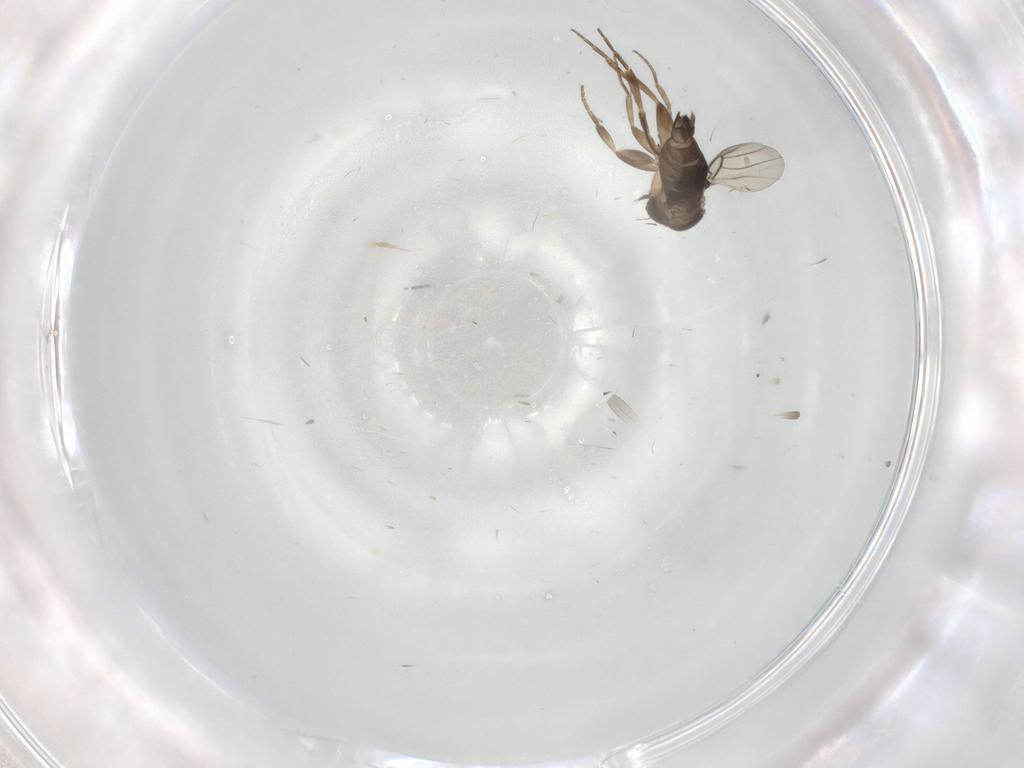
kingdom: Animalia
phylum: Arthropoda
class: Insecta
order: Diptera
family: Phoridae
